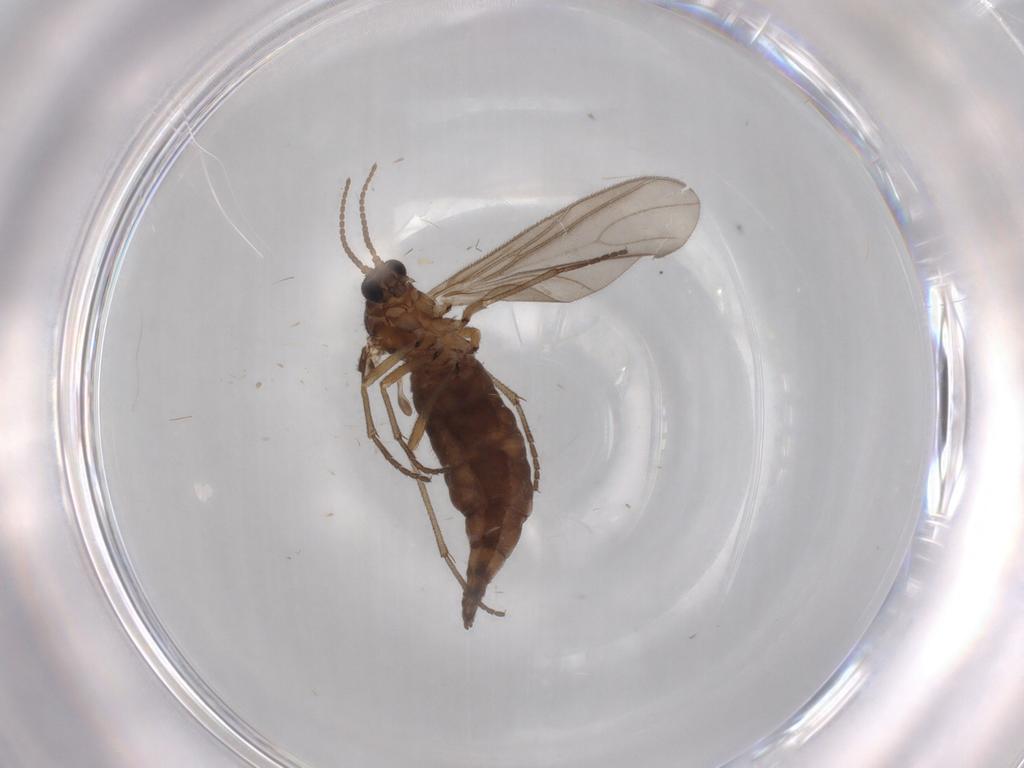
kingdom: Animalia
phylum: Arthropoda
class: Insecta
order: Diptera
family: Sciaridae
